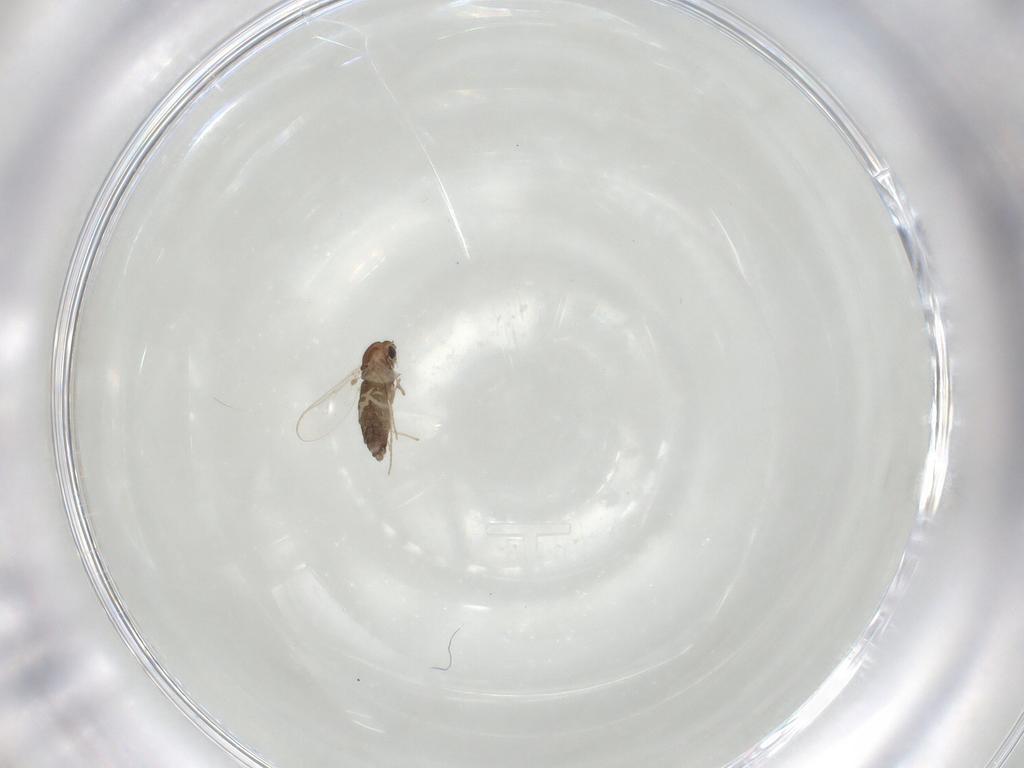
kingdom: Animalia
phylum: Arthropoda
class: Insecta
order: Diptera
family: Chironomidae
